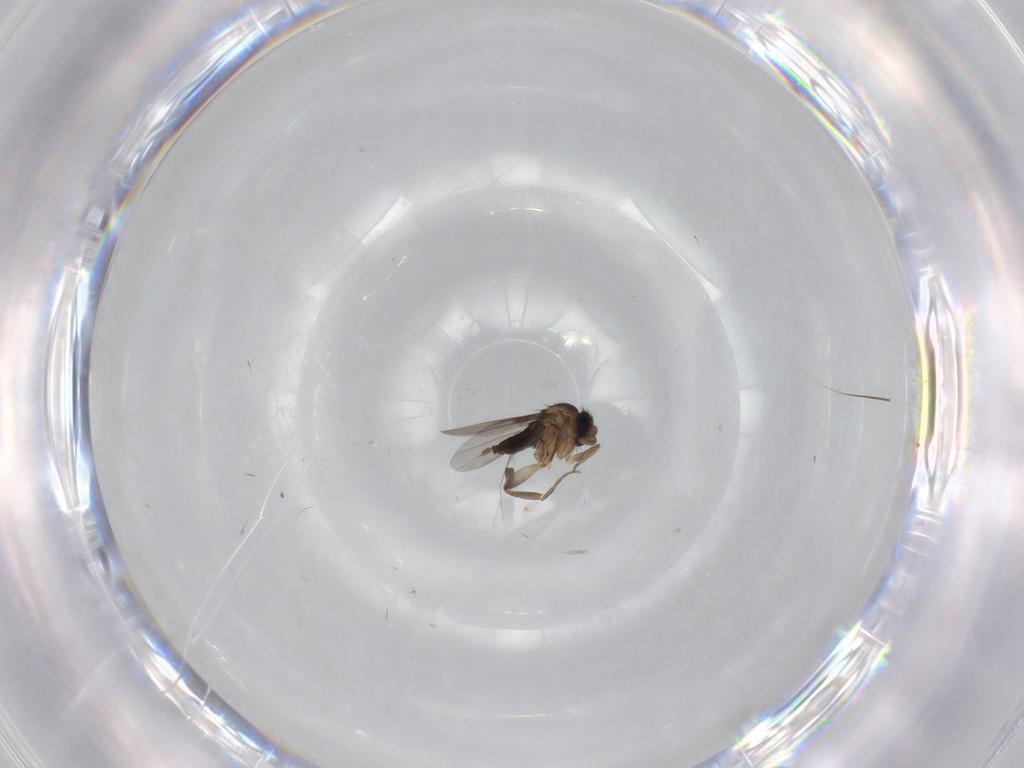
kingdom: Animalia
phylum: Arthropoda
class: Insecta
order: Diptera
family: Phoridae
